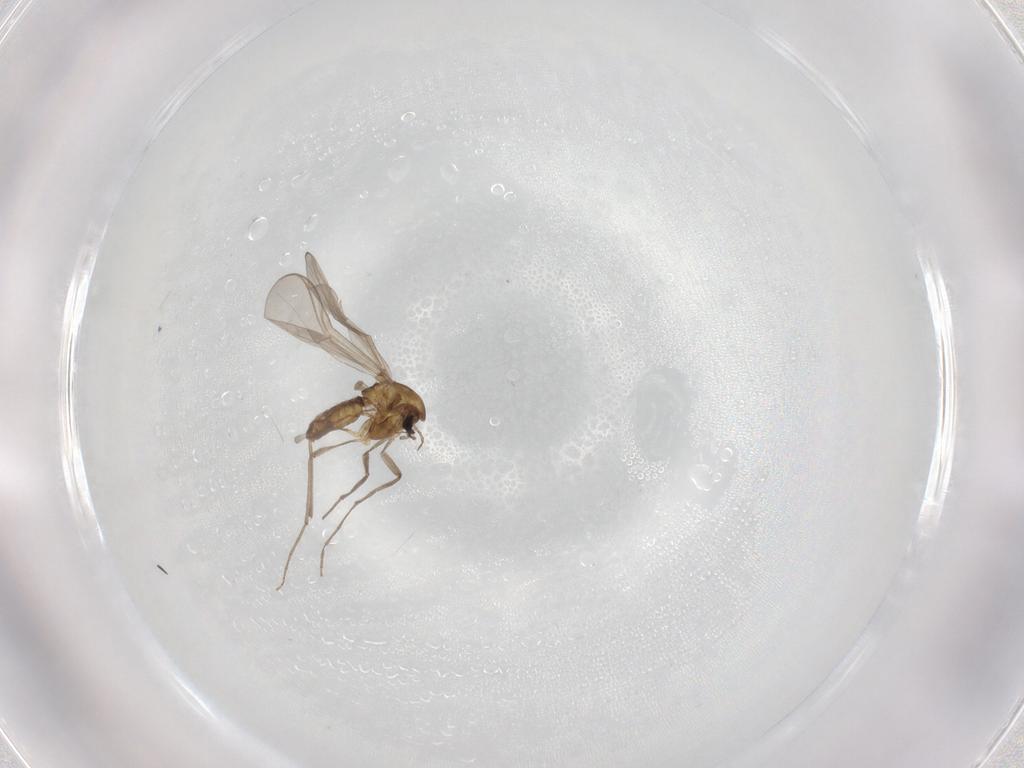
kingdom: Animalia
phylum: Arthropoda
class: Insecta
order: Diptera
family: Chironomidae
